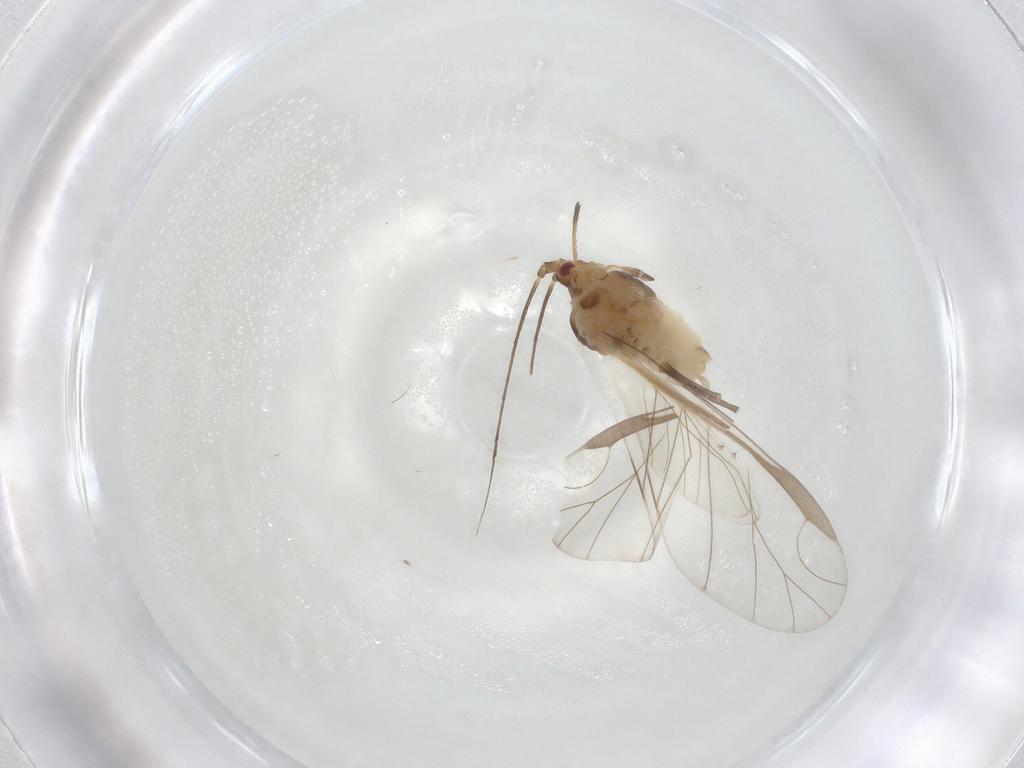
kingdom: Animalia
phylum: Arthropoda
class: Insecta
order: Hemiptera
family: Aphididae
